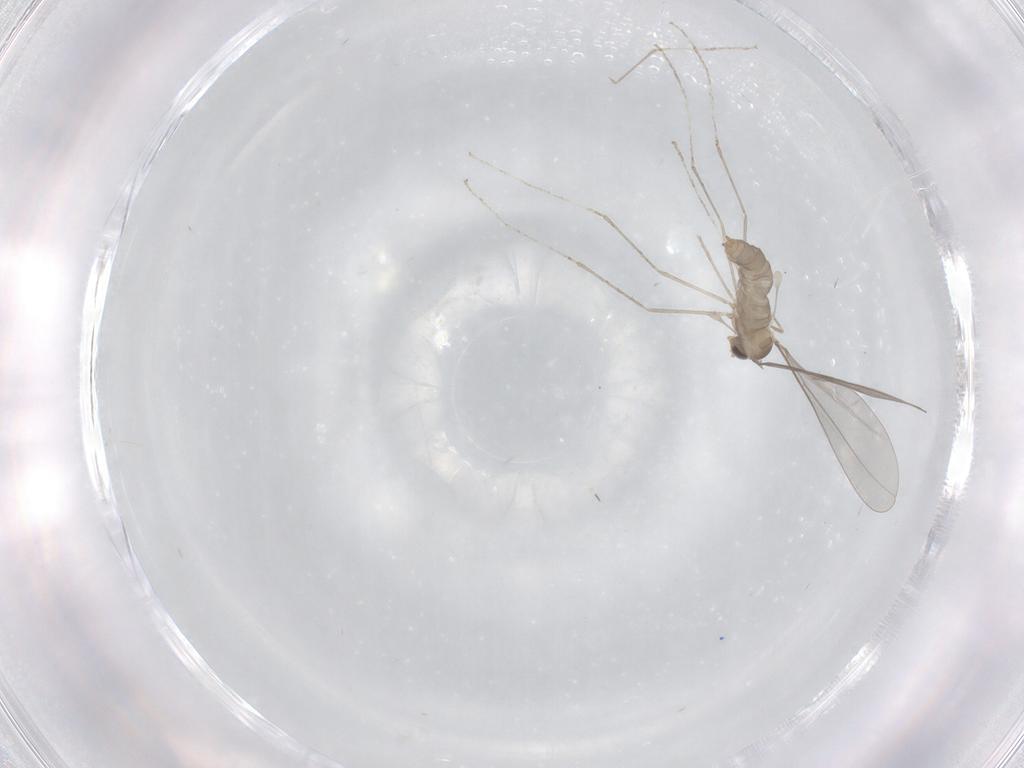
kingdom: Animalia
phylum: Arthropoda
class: Insecta
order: Diptera
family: Cecidomyiidae
